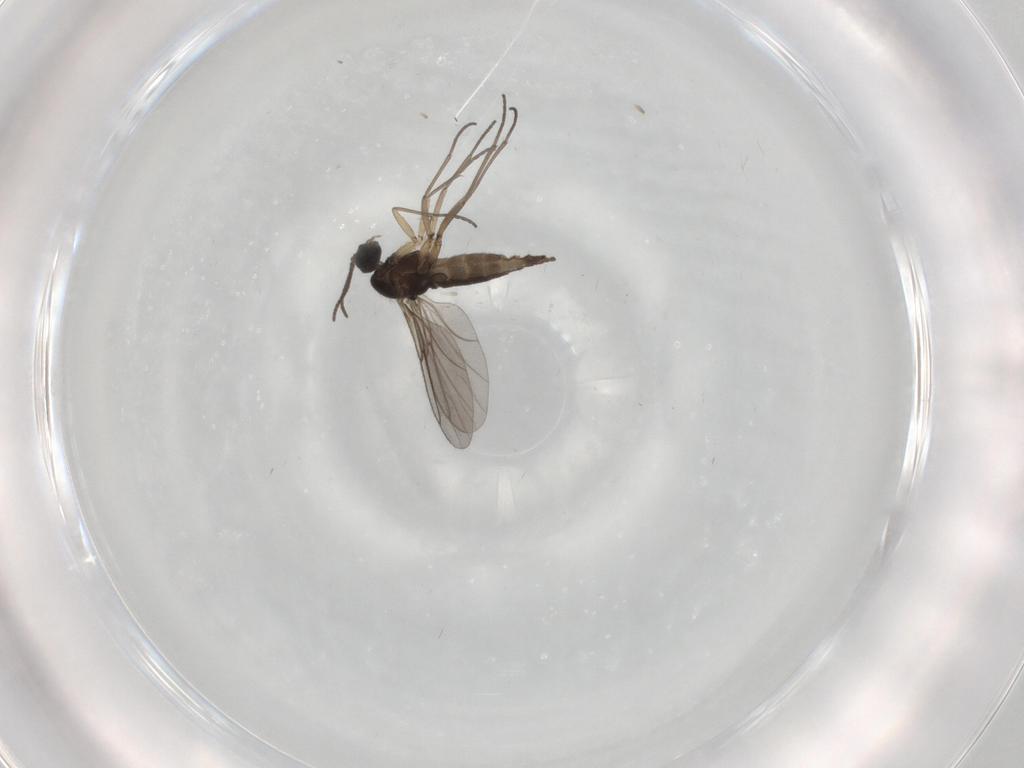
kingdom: Animalia
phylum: Arthropoda
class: Insecta
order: Diptera
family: Sciaridae
